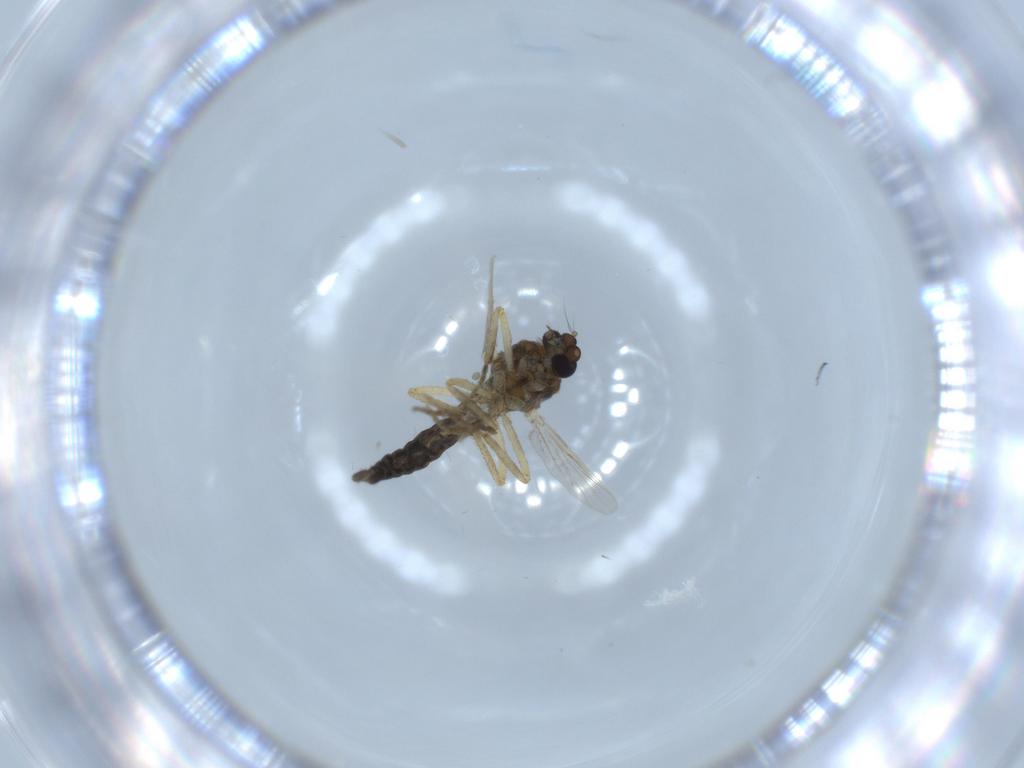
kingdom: Animalia
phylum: Arthropoda
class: Insecta
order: Diptera
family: Ceratopogonidae
